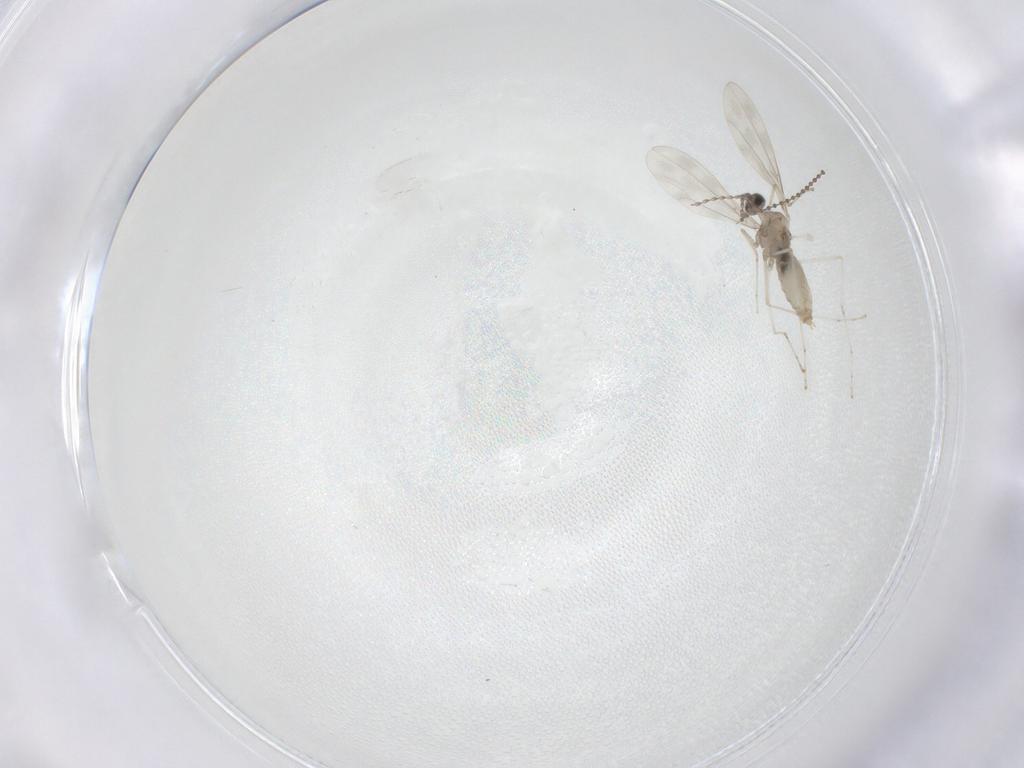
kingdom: Animalia
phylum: Arthropoda
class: Insecta
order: Diptera
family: Cecidomyiidae
